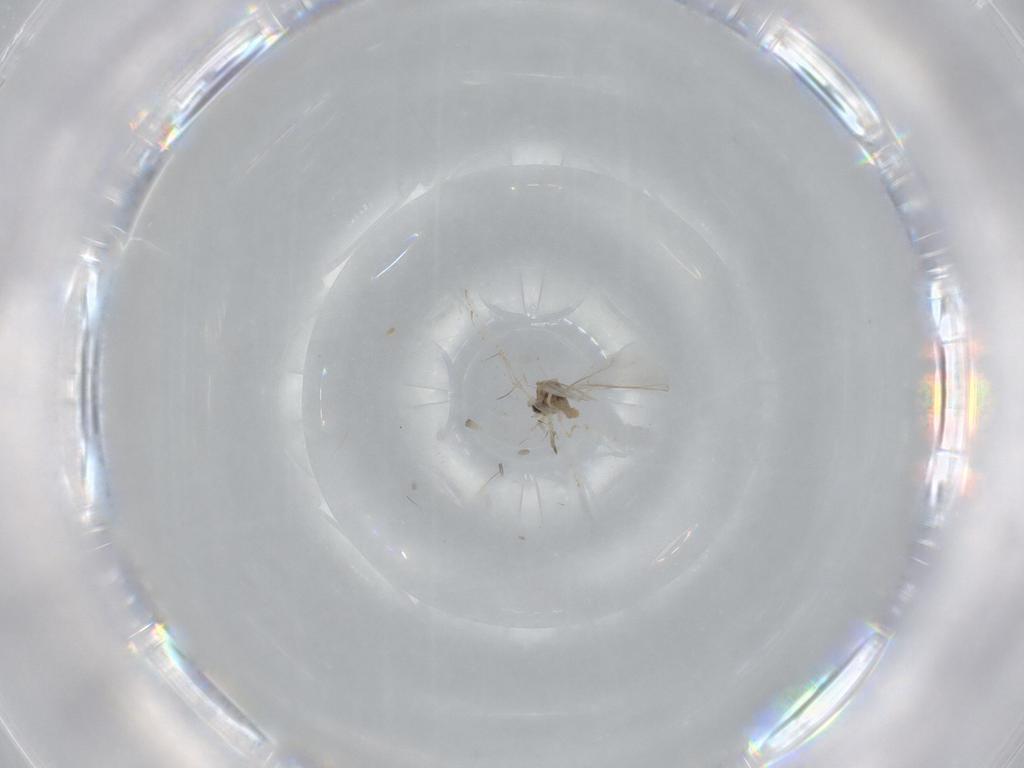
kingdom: Animalia
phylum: Arthropoda
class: Insecta
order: Diptera
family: Cecidomyiidae
